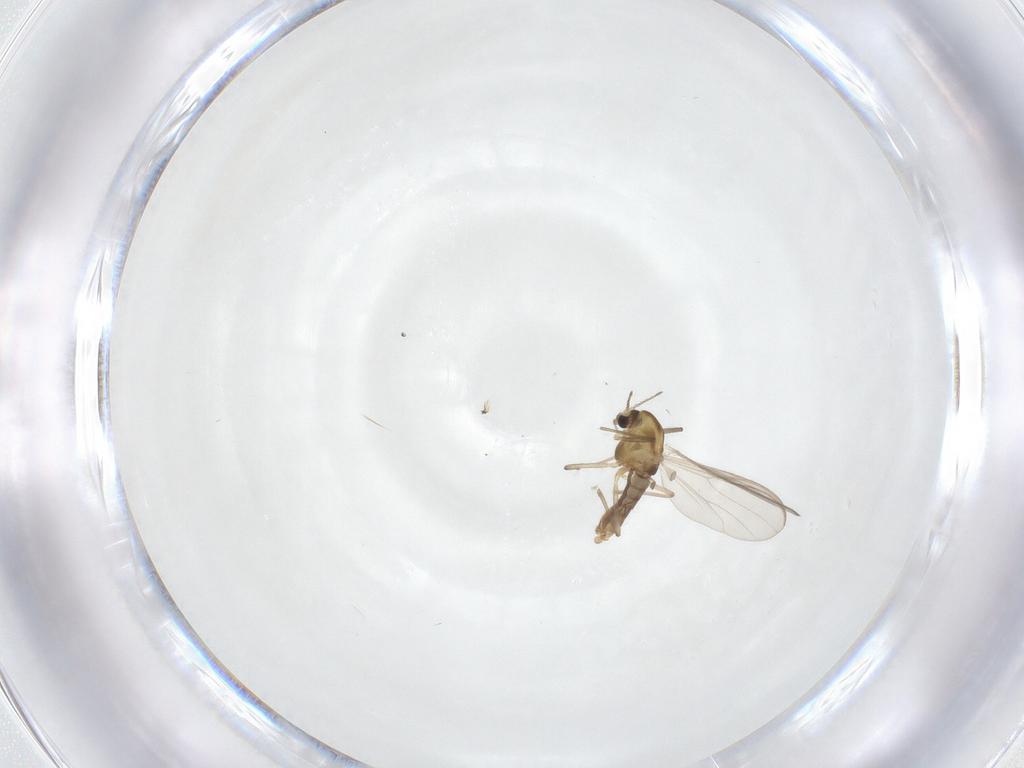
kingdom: Animalia
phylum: Arthropoda
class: Insecta
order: Diptera
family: Chironomidae
